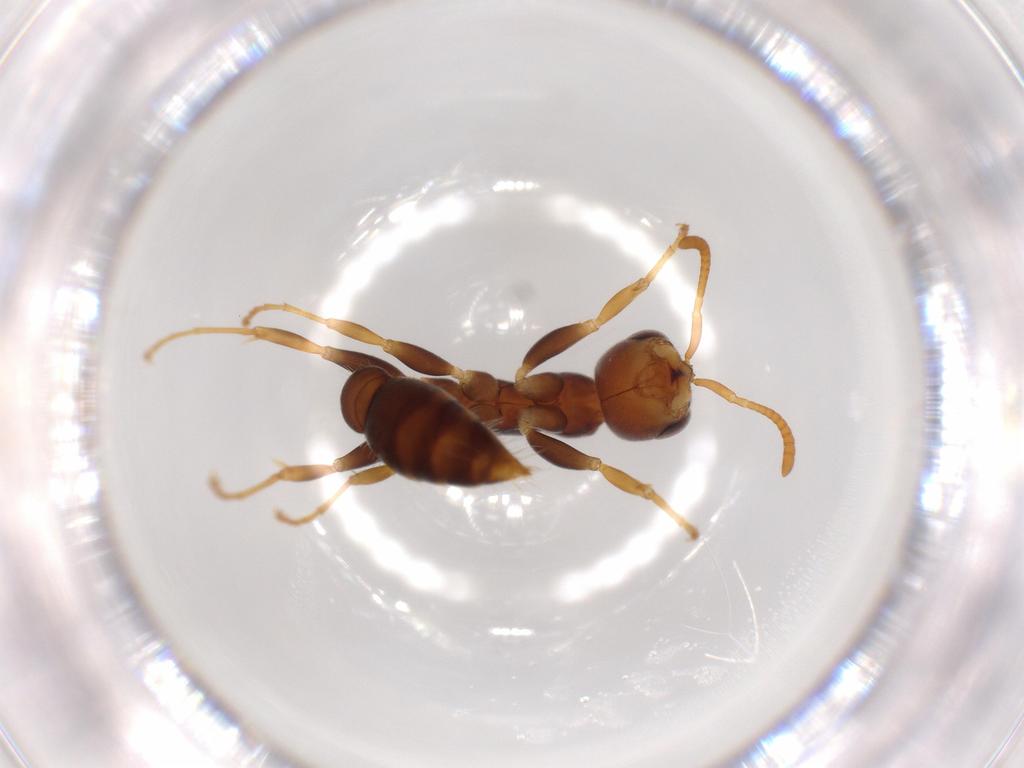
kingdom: Animalia
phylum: Arthropoda
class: Insecta
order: Hymenoptera
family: Formicidae
